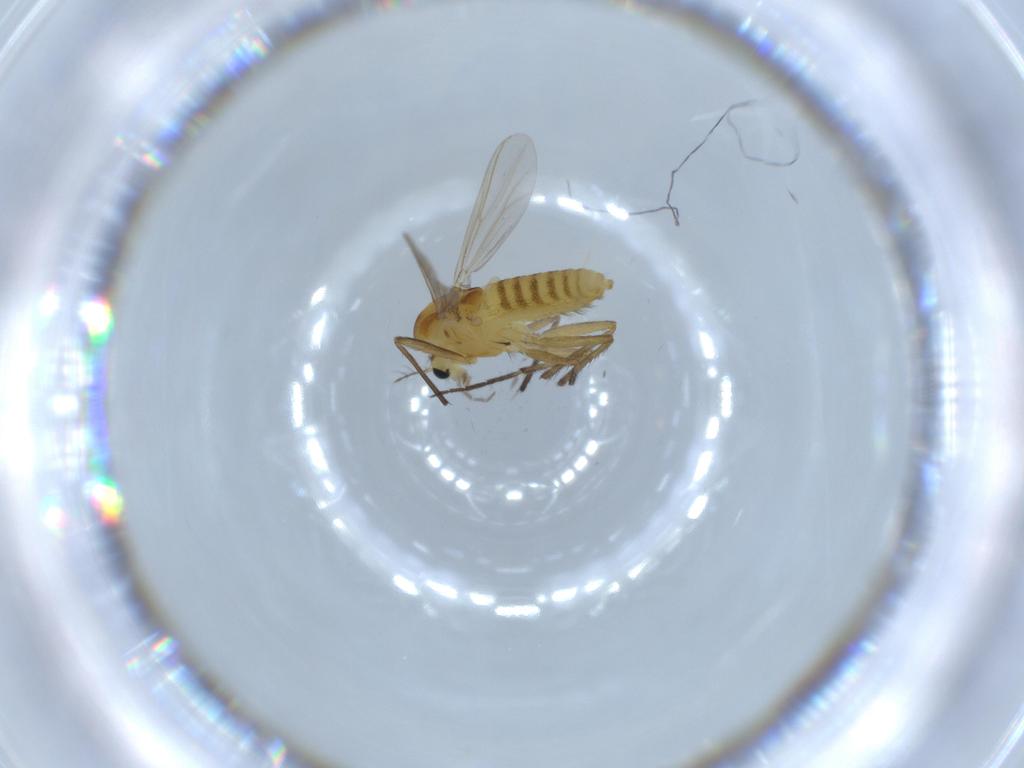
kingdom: Animalia
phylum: Arthropoda
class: Insecta
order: Diptera
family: Chironomidae
